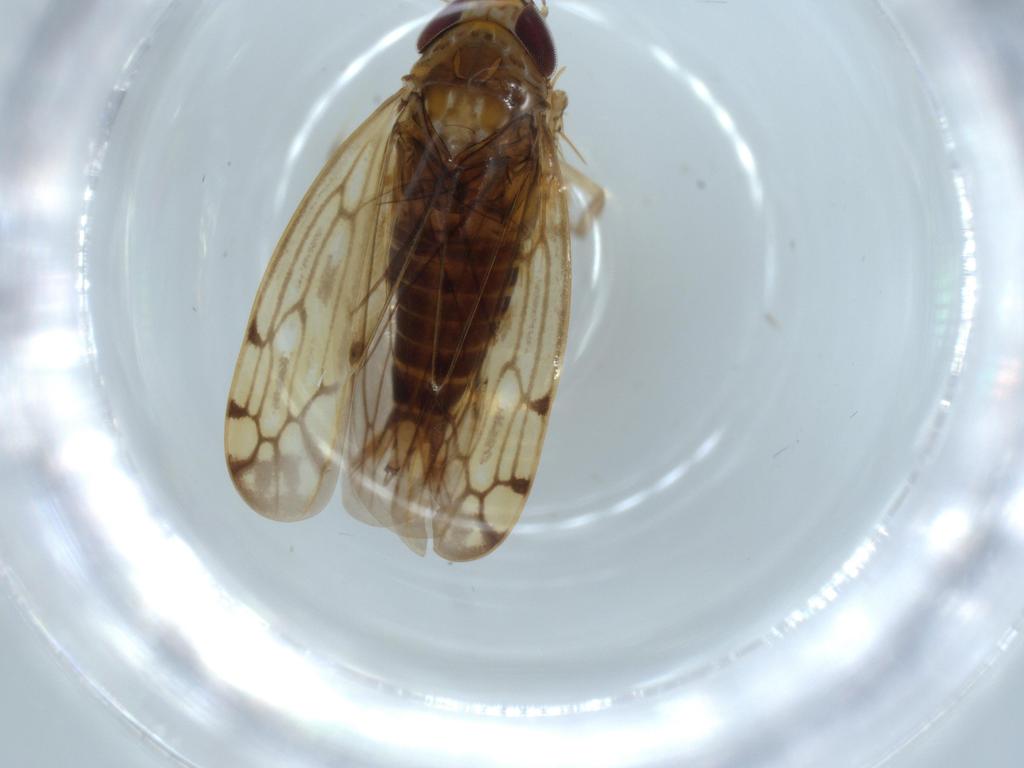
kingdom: Animalia
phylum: Arthropoda
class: Insecta
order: Hemiptera
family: Cicadellidae
